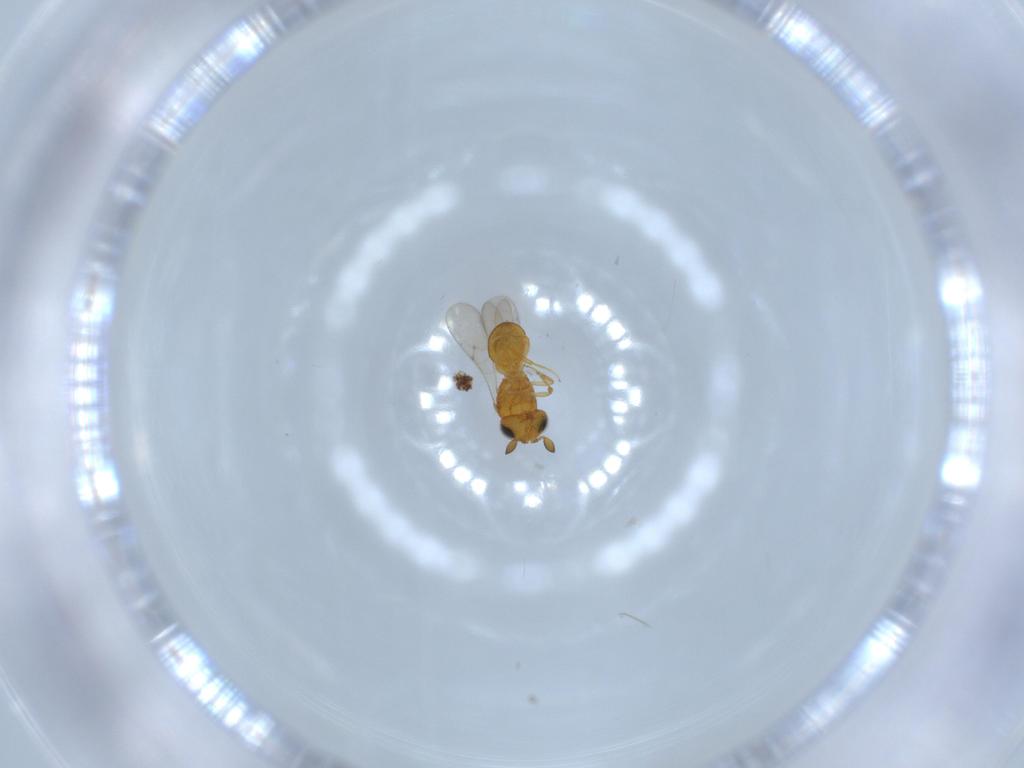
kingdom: Animalia
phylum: Arthropoda
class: Insecta
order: Hymenoptera
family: Scelionidae
